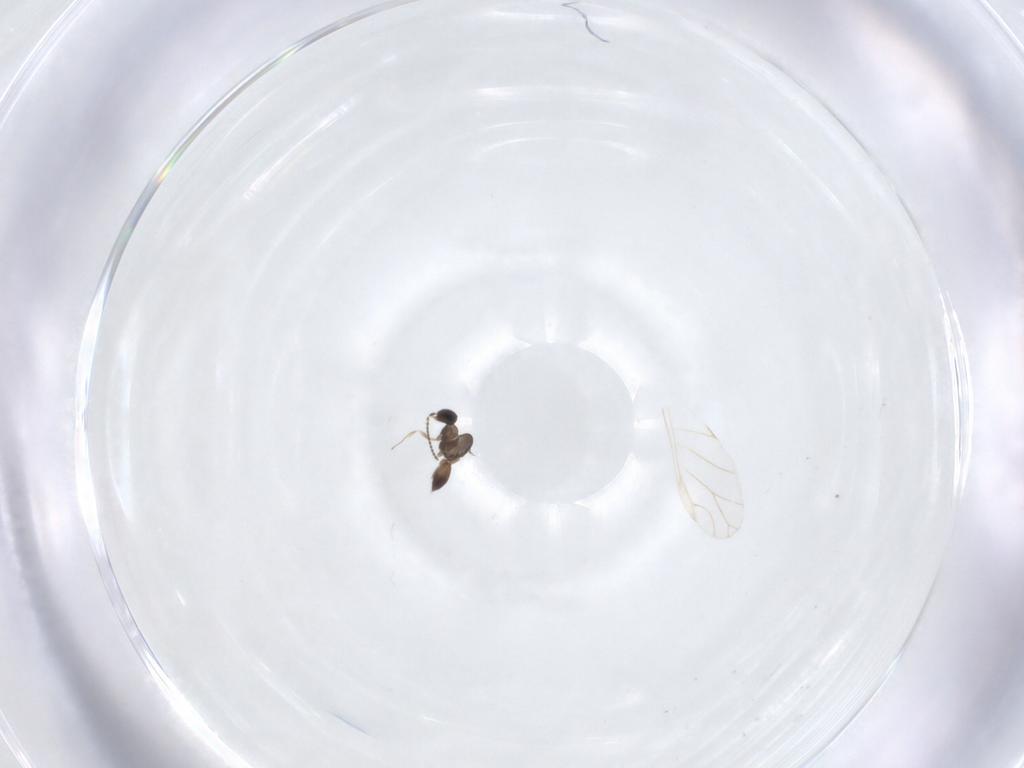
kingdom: Animalia
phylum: Arthropoda
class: Insecta
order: Hymenoptera
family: Scelionidae
